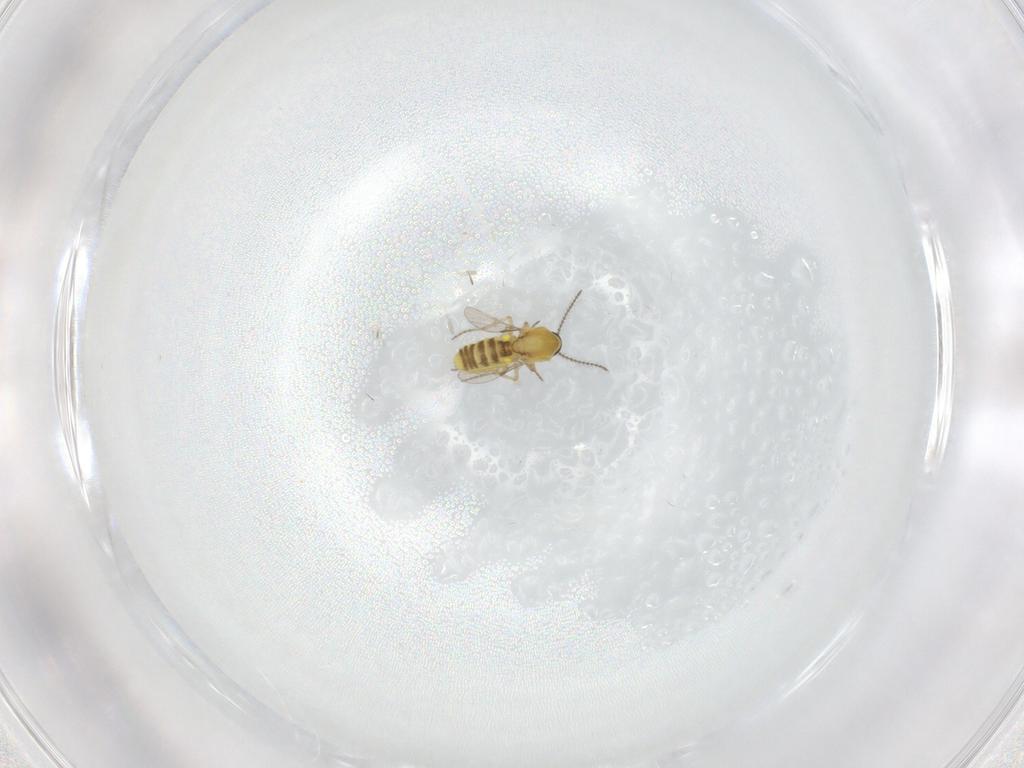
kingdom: Animalia
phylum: Arthropoda
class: Insecta
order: Diptera
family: Ceratopogonidae
